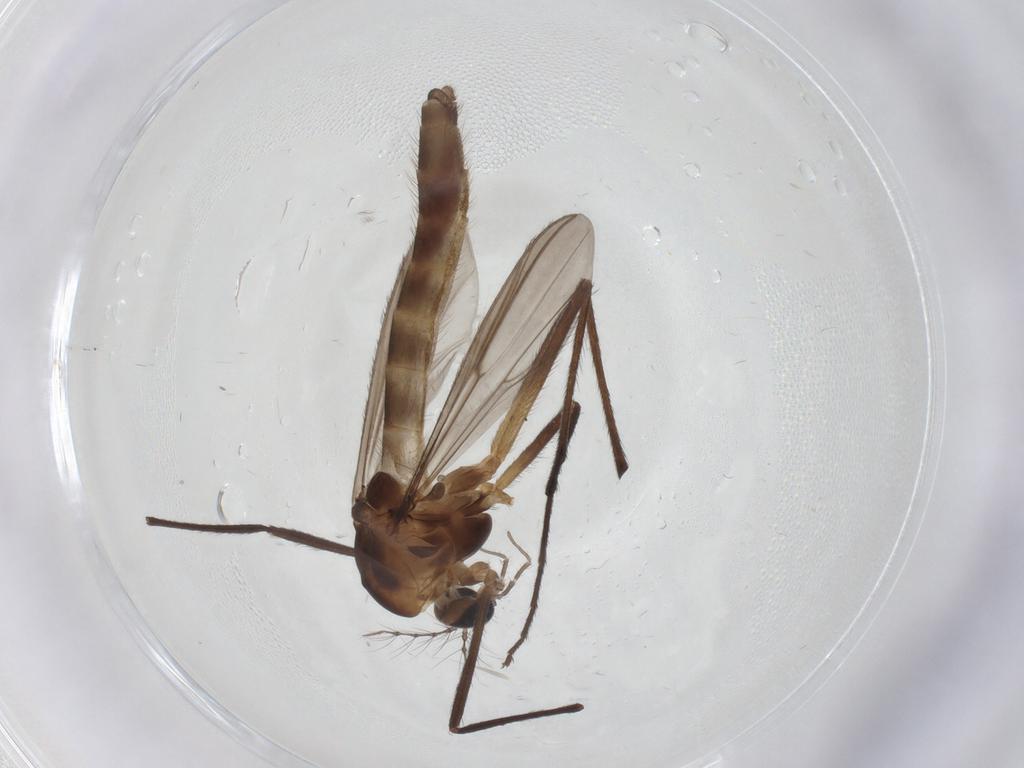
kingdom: Animalia
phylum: Arthropoda
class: Insecta
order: Diptera
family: Chironomidae
